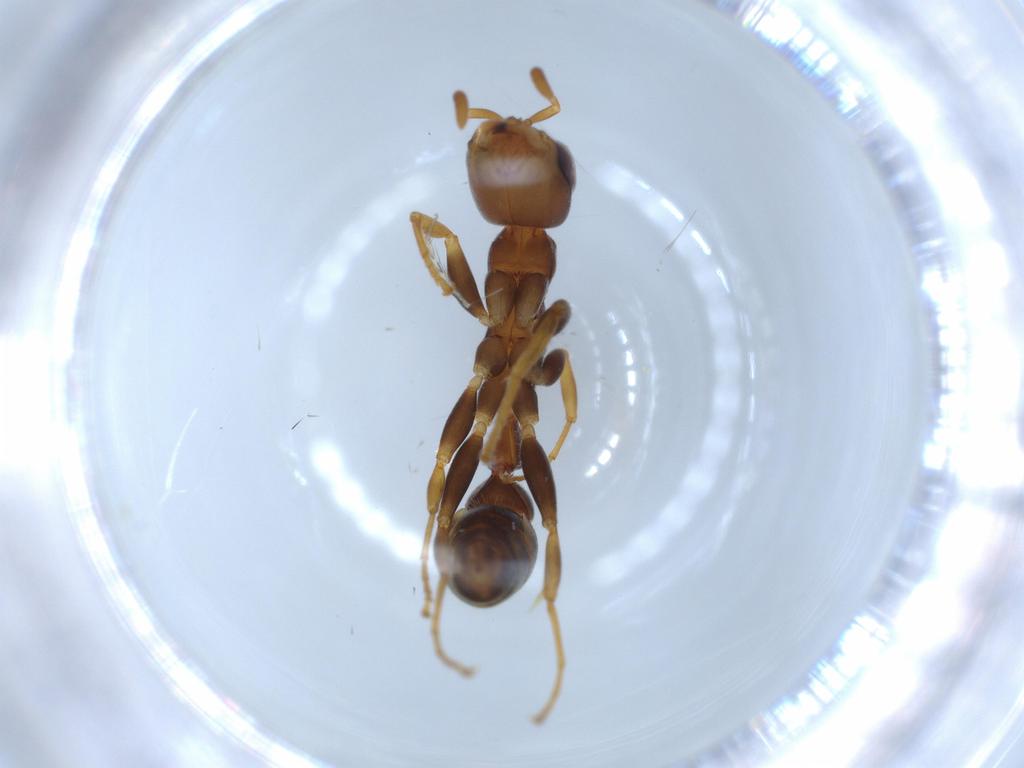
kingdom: Animalia
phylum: Arthropoda
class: Insecta
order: Hymenoptera
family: Formicidae
